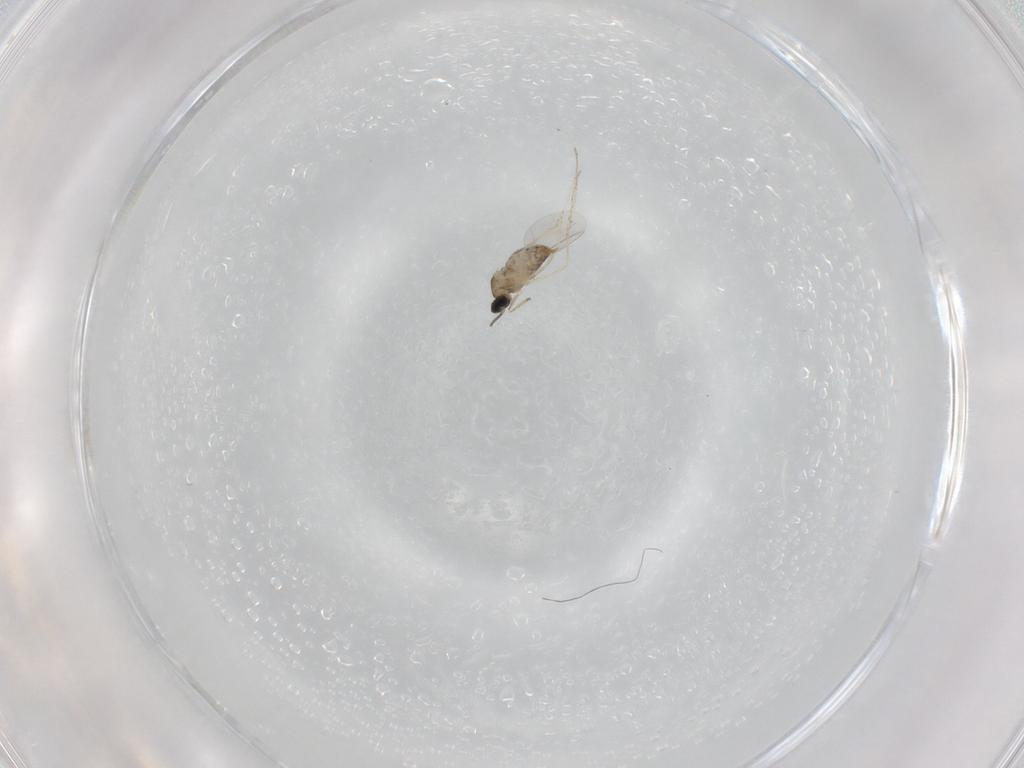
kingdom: Animalia
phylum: Arthropoda
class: Insecta
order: Diptera
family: Cecidomyiidae
